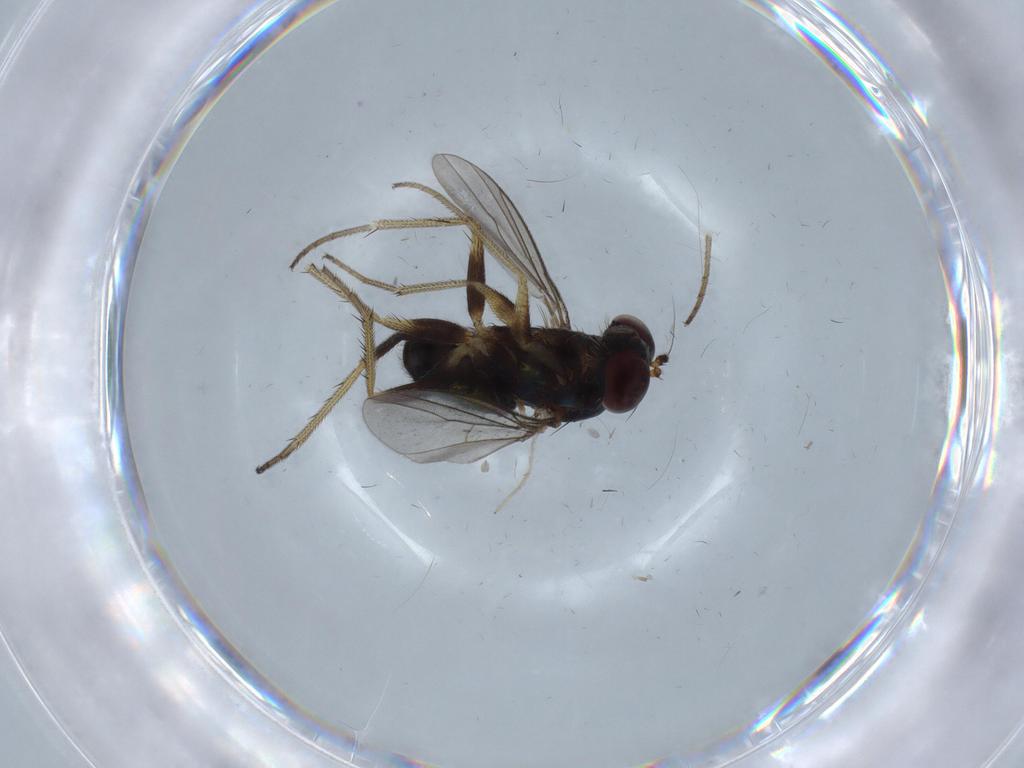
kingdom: Animalia
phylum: Arthropoda
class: Insecta
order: Diptera
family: Dolichopodidae
